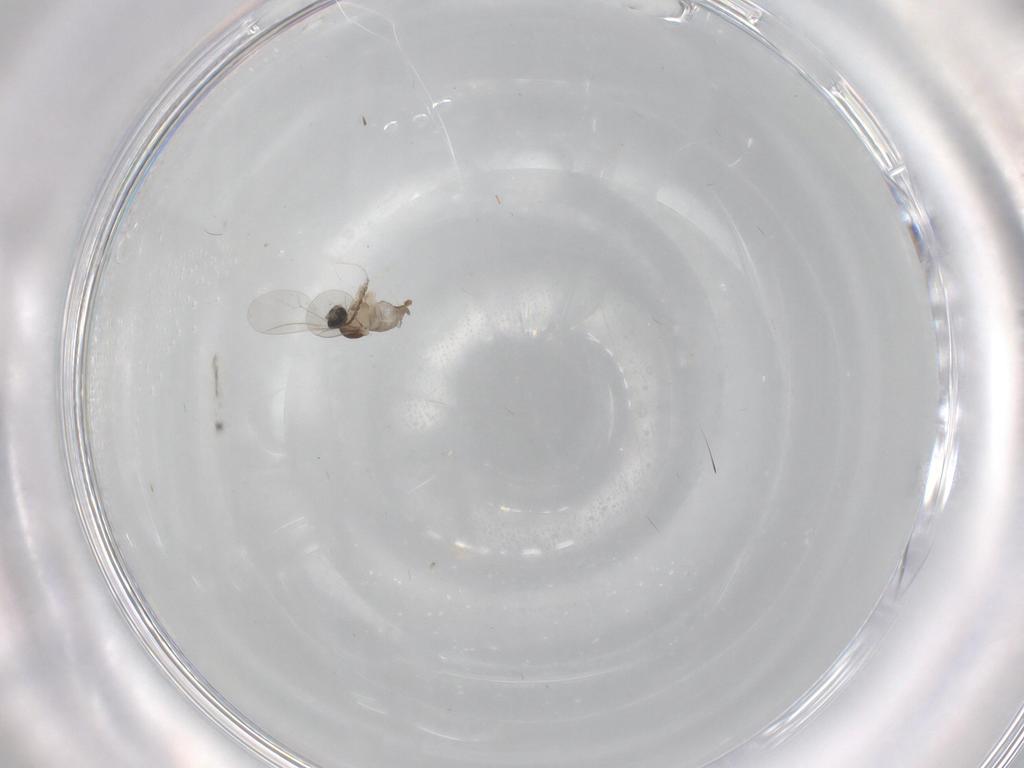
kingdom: Animalia
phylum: Arthropoda
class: Insecta
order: Diptera
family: Cecidomyiidae
